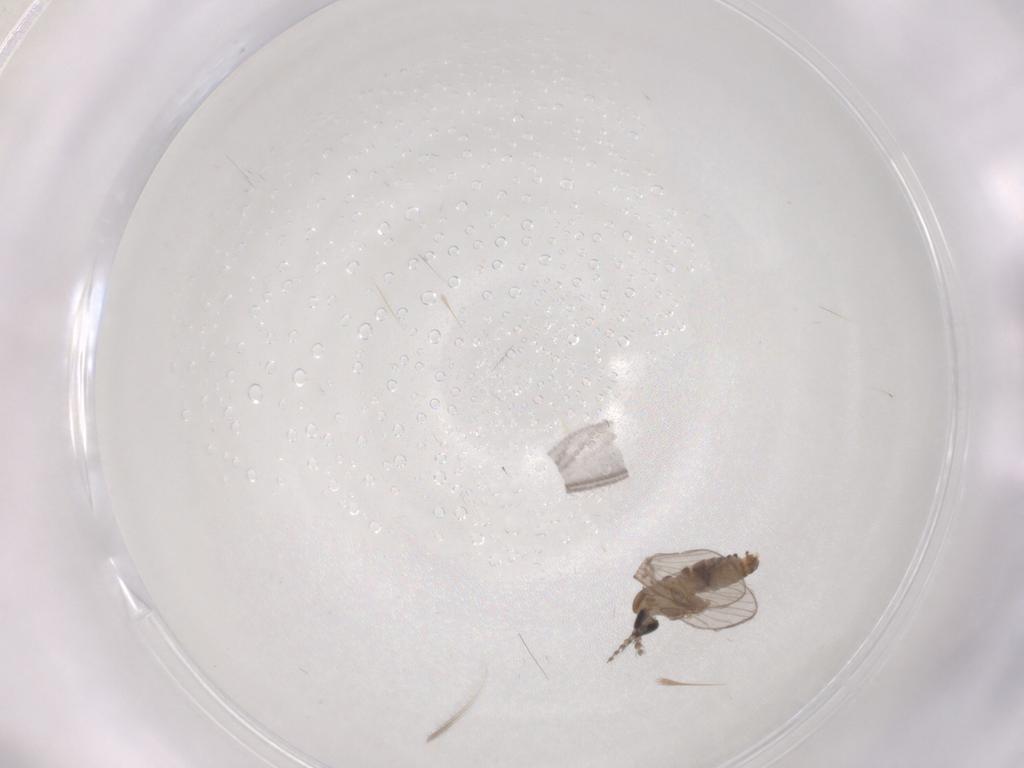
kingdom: Animalia
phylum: Arthropoda
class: Insecta
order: Diptera
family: Psychodidae
